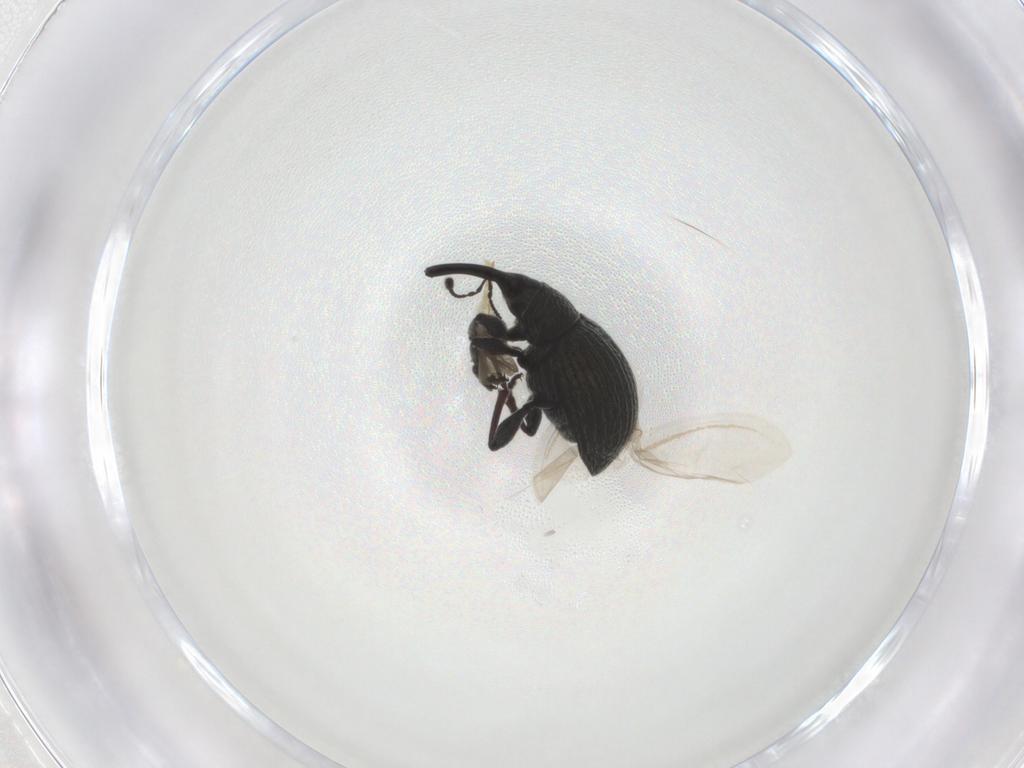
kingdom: Animalia
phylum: Arthropoda
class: Insecta
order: Coleoptera
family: Brentidae
